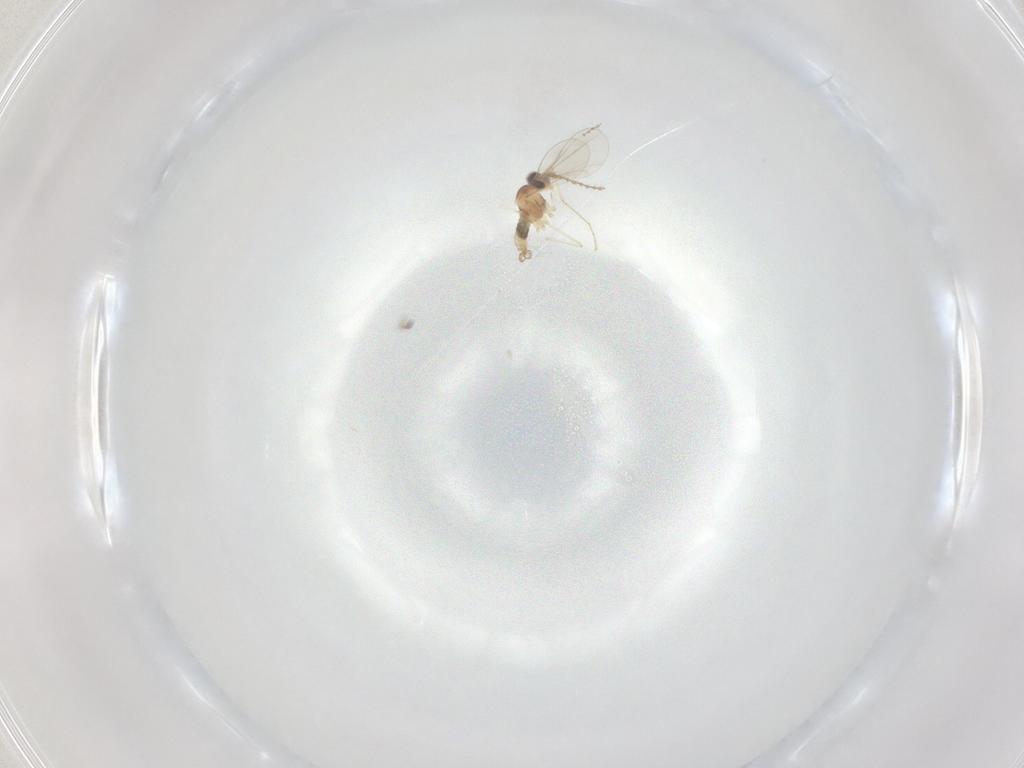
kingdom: Animalia
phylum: Arthropoda
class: Insecta
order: Diptera
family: Cecidomyiidae
